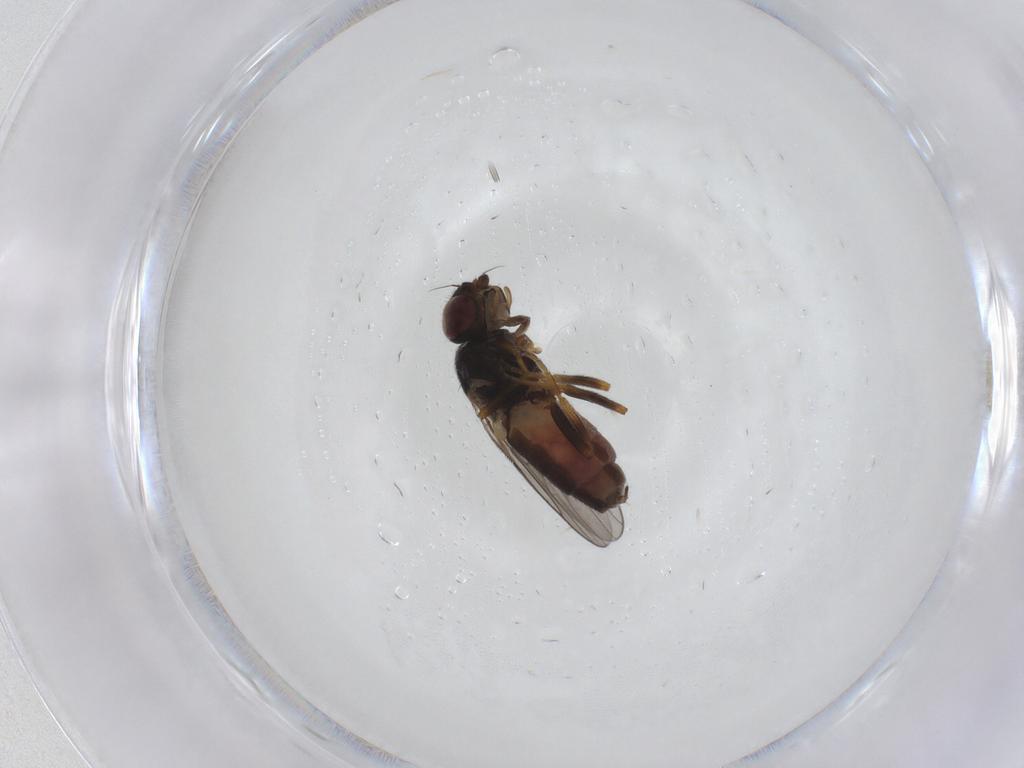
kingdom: Animalia
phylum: Arthropoda
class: Insecta
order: Diptera
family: Chloropidae
